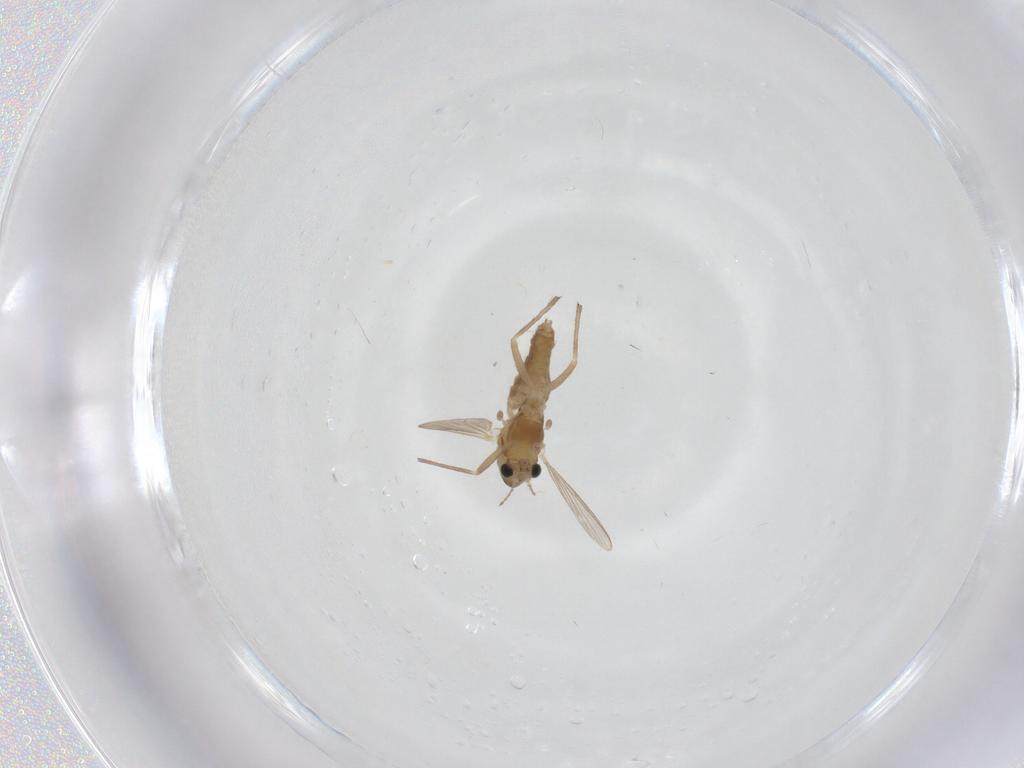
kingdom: Animalia
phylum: Arthropoda
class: Insecta
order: Diptera
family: Chironomidae
